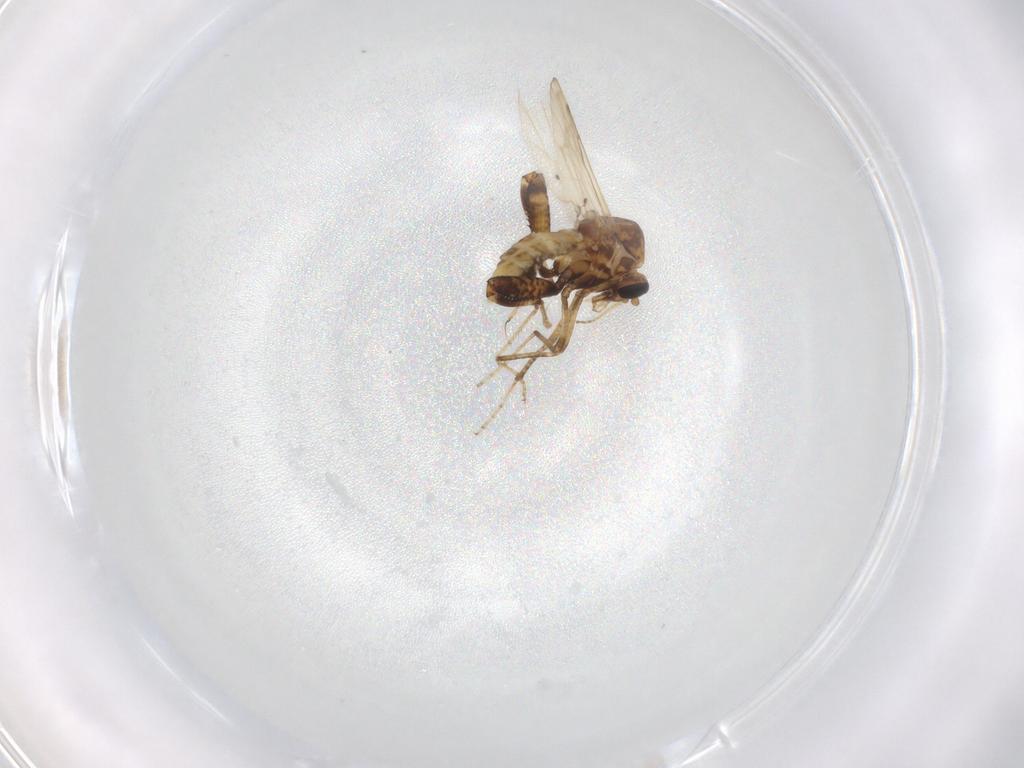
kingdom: Animalia
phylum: Arthropoda
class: Insecta
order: Diptera
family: Ceratopogonidae
